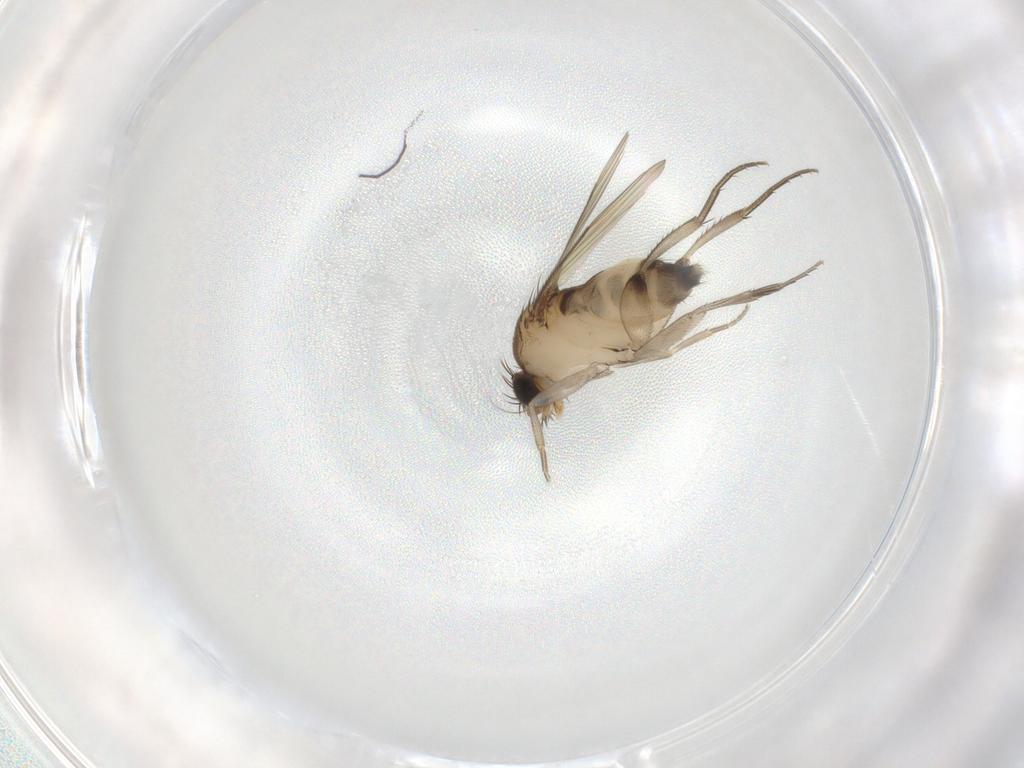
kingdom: Animalia
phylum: Arthropoda
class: Insecta
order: Diptera
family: Phoridae
